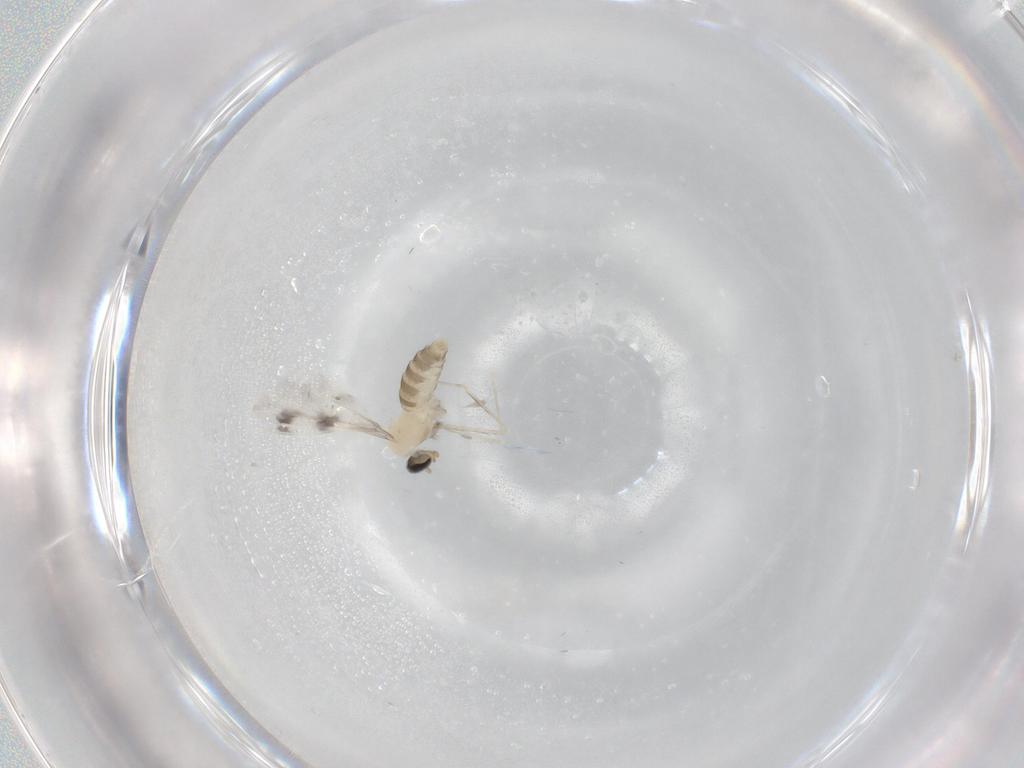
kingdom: Animalia
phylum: Arthropoda
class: Insecta
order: Diptera
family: Cecidomyiidae
